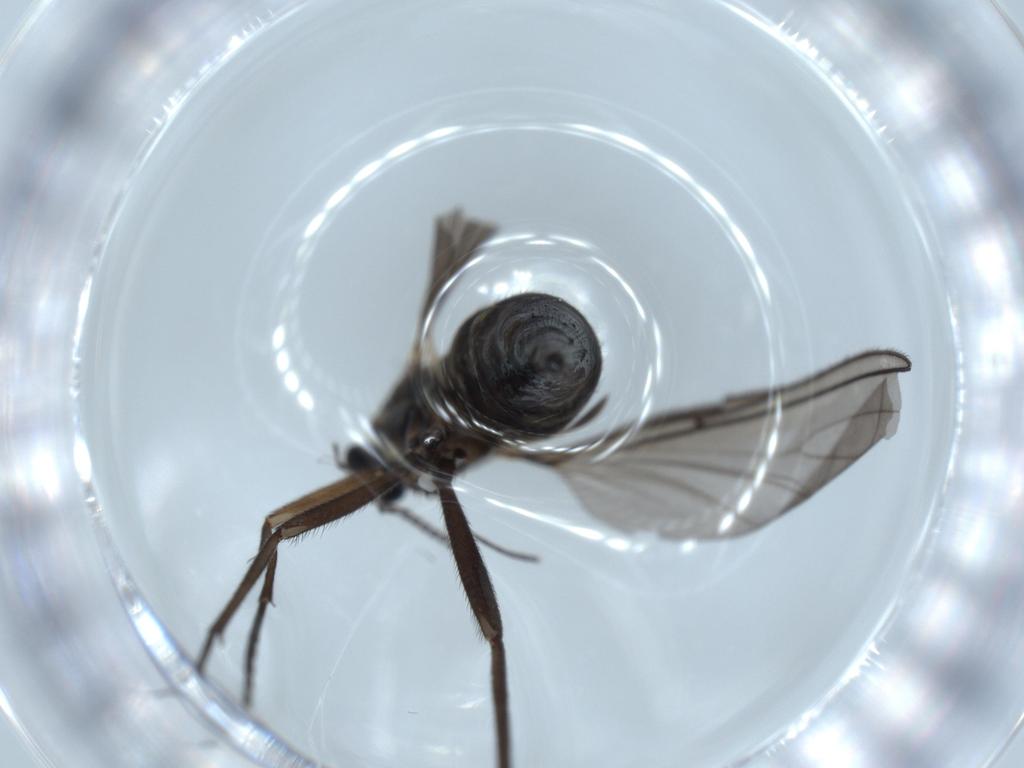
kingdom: Animalia
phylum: Arthropoda
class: Insecta
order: Diptera
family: Sciaridae
